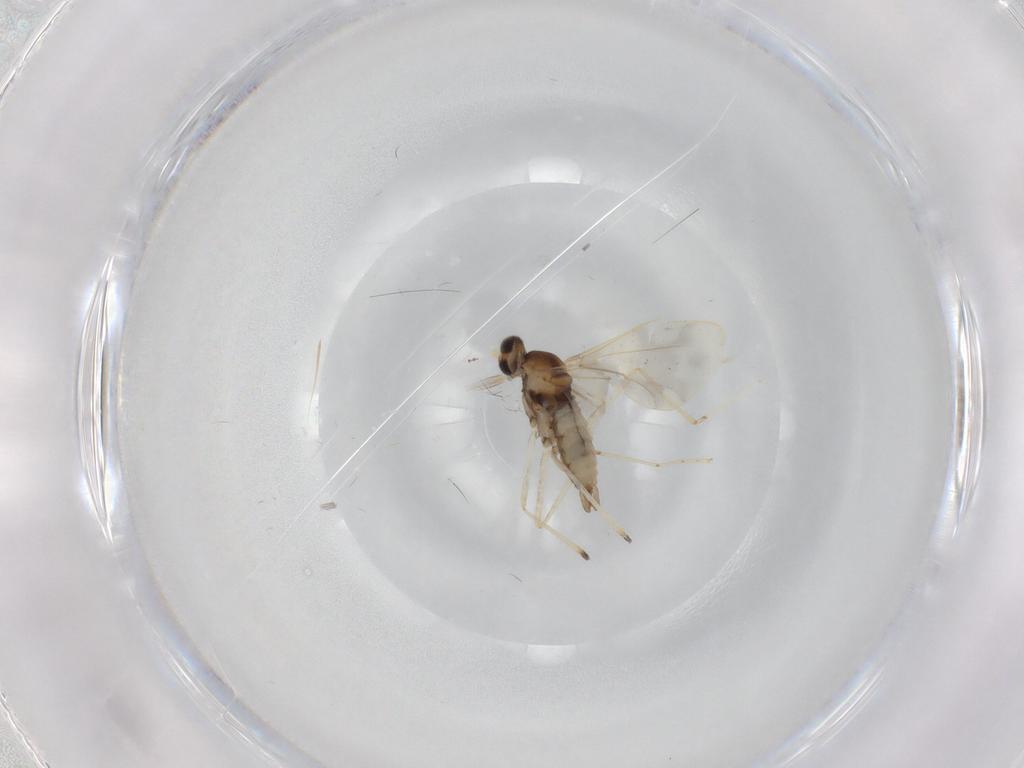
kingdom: Animalia
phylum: Arthropoda
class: Insecta
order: Diptera
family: Cecidomyiidae
